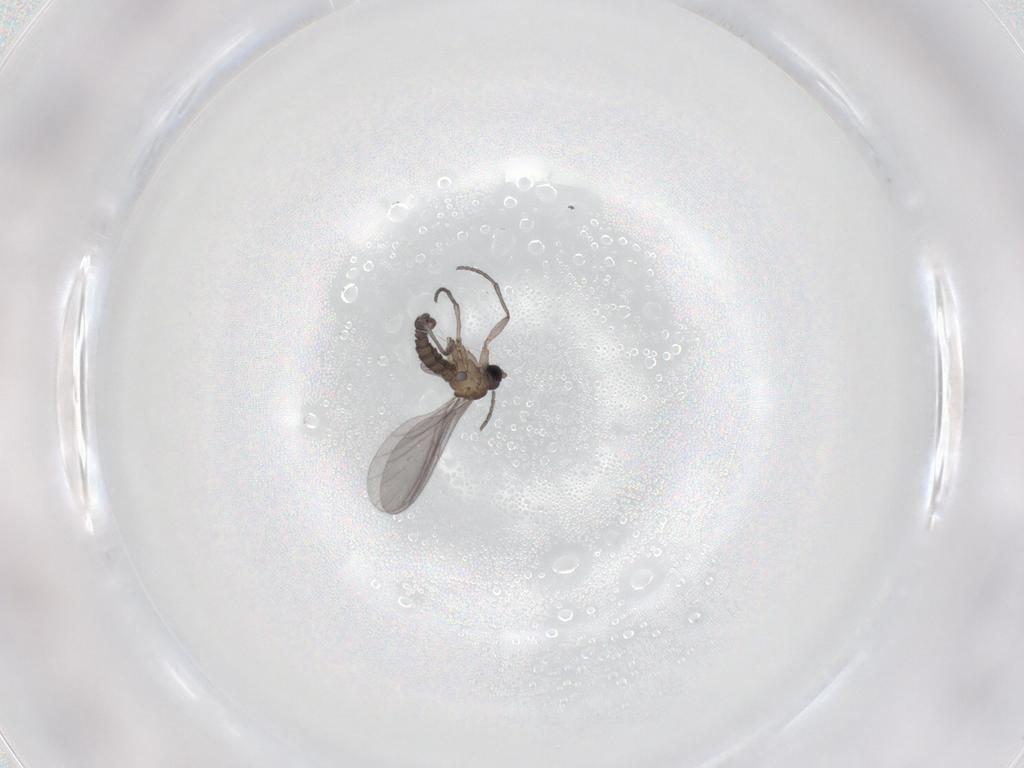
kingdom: Animalia
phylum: Arthropoda
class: Insecta
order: Diptera
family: Sciaridae
